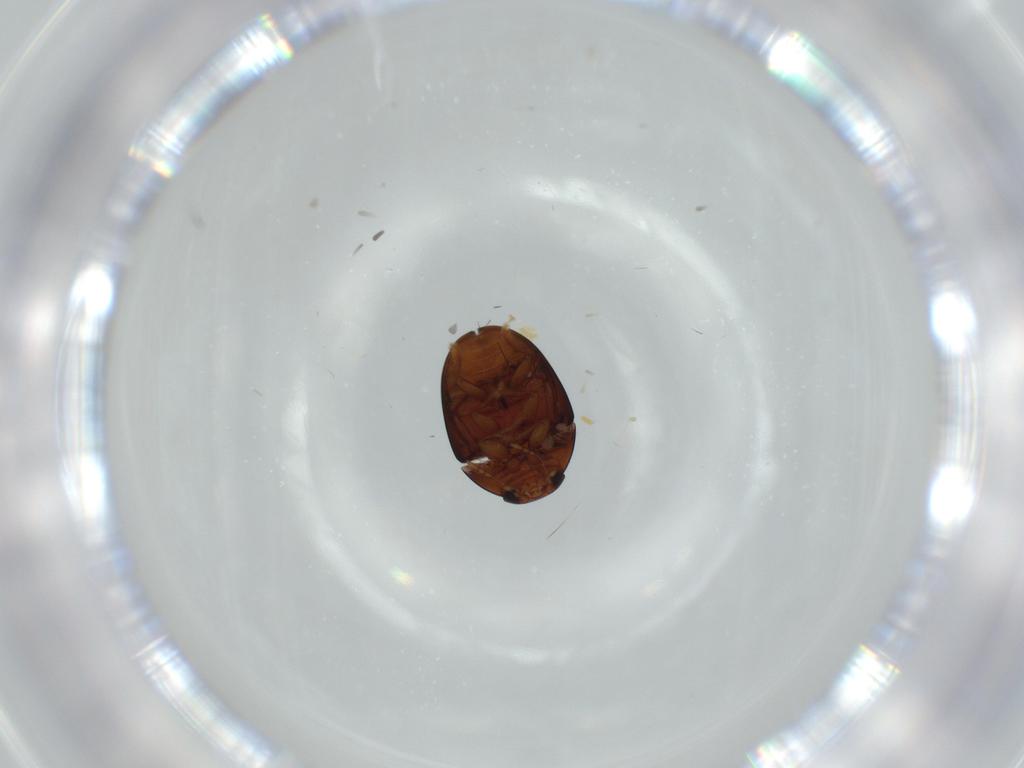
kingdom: Animalia
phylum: Arthropoda
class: Insecta
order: Coleoptera
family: Phalacridae
